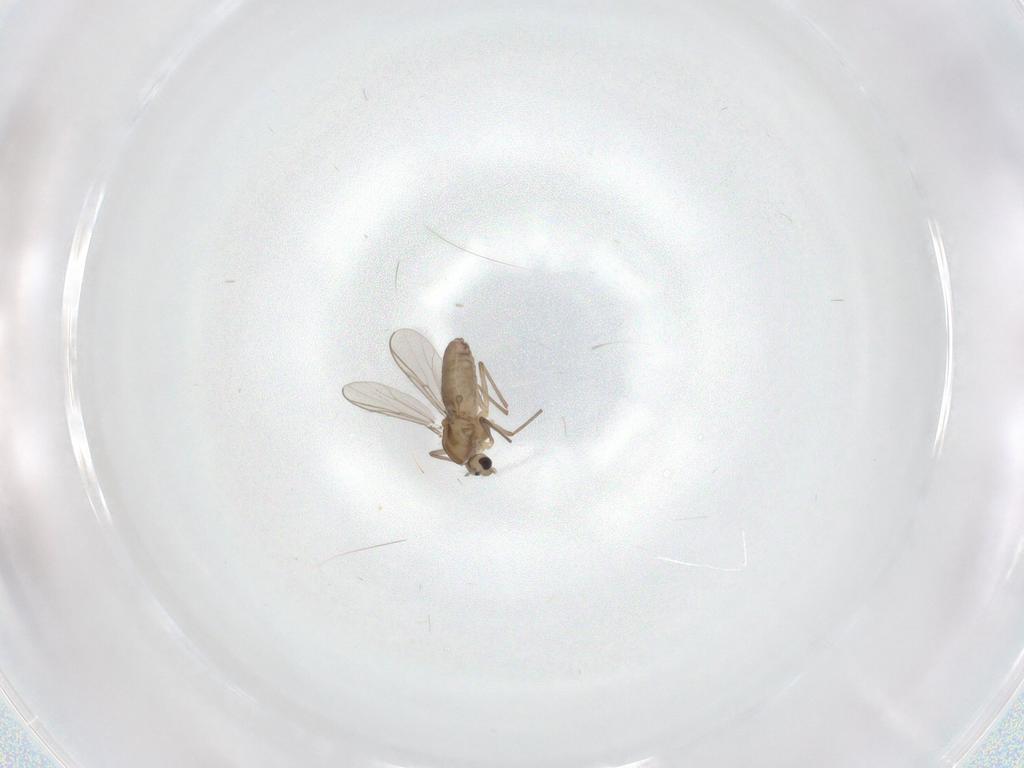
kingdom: Animalia
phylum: Arthropoda
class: Insecta
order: Diptera
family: Chironomidae
